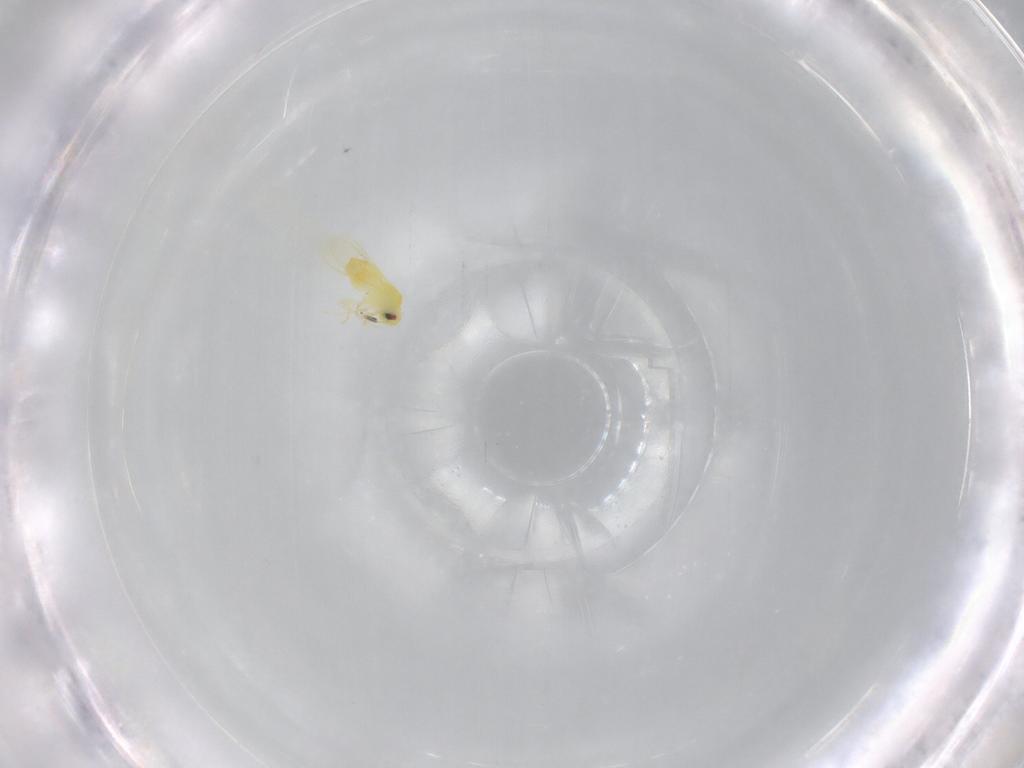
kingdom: Animalia
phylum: Arthropoda
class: Insecta
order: Hemiptera
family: Aleyrodidae
